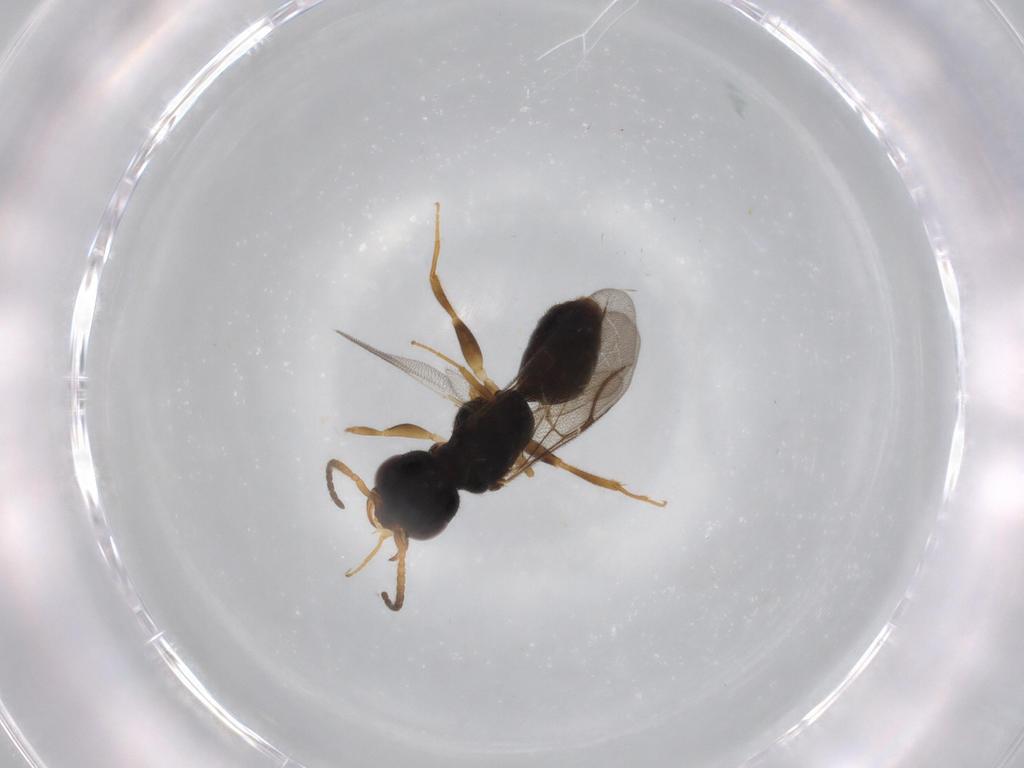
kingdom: Animalia
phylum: Arthropoda
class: Insecta
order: Hymenoptera
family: Bethylidae
